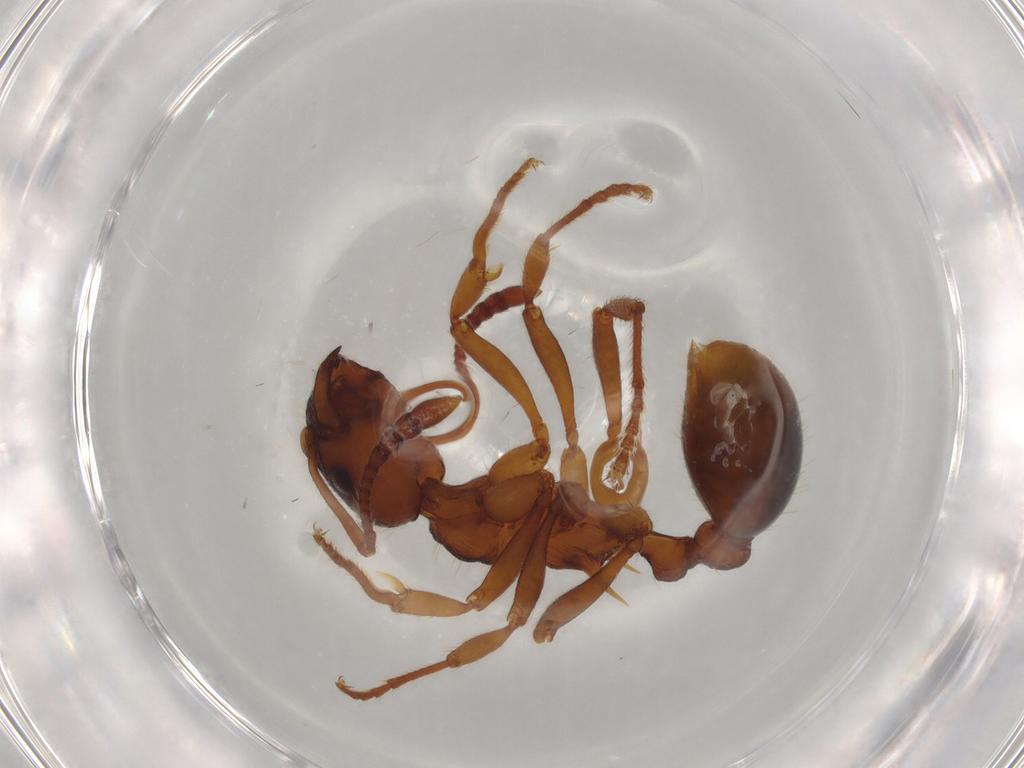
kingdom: Animalia
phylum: Arthropoda
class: Insecta
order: Hymenoptera
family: Formicidae
